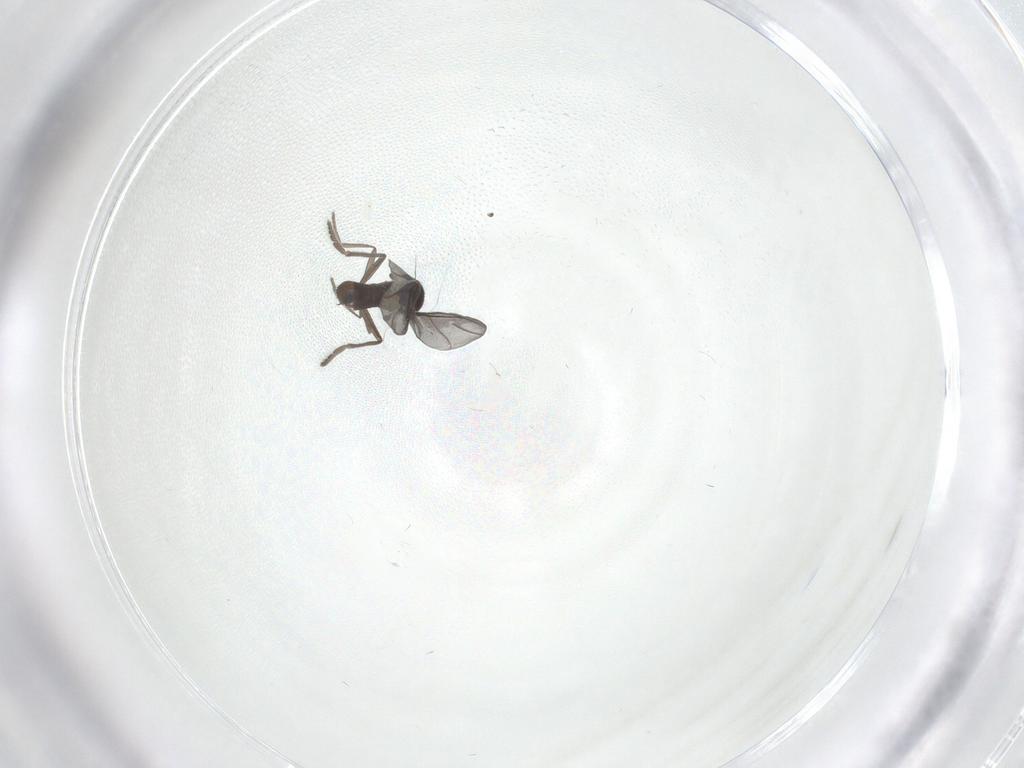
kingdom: Animalia
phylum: Arthropoda
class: Insecta
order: Diptera
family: Phoridae
